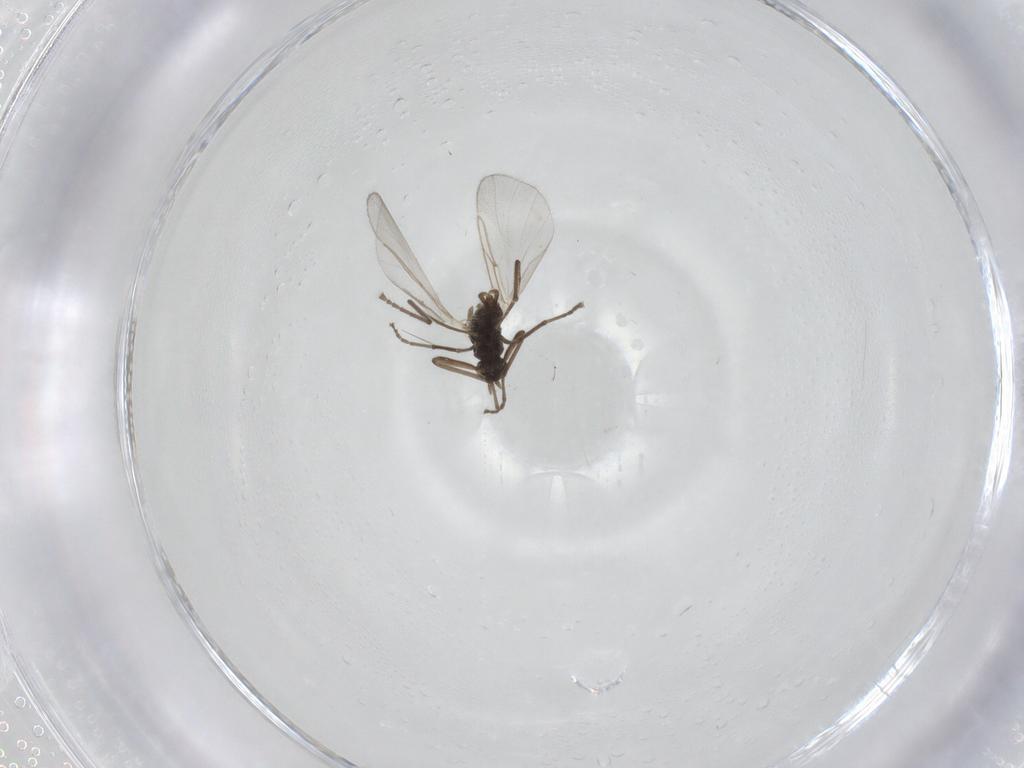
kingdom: Animalia
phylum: Arthropoda
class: Insecta
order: Diptera
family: Cecidomyiidae
